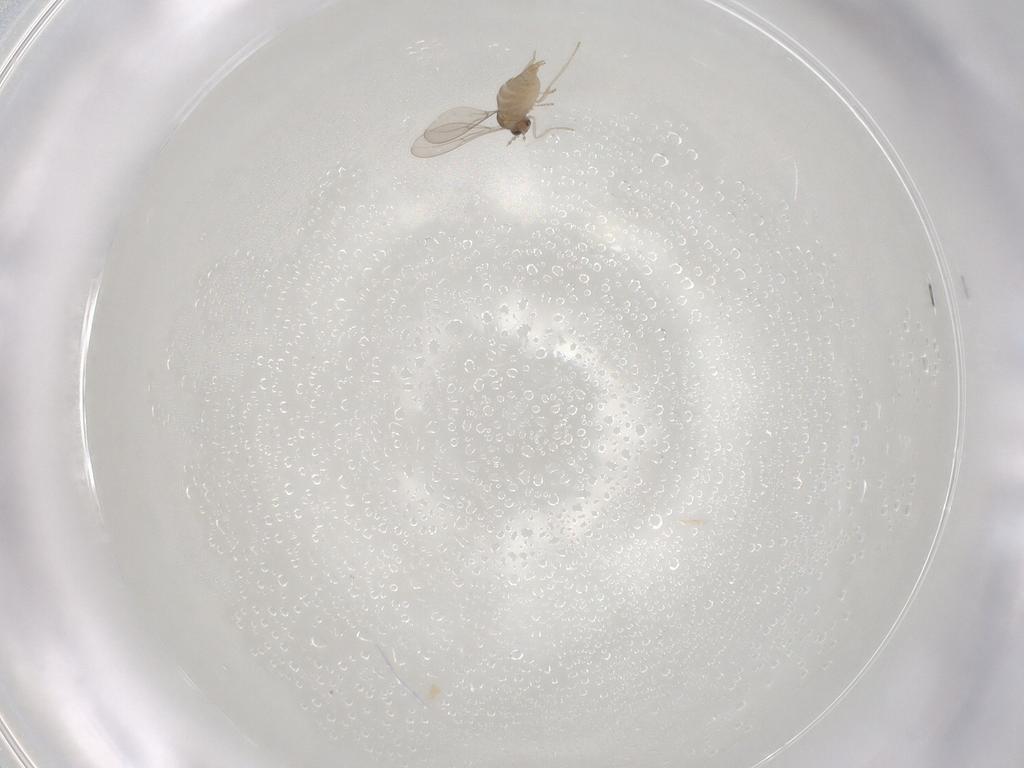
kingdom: Animalia
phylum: Arthropoda
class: Insecta
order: Diptera
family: Cecidomyiidae
